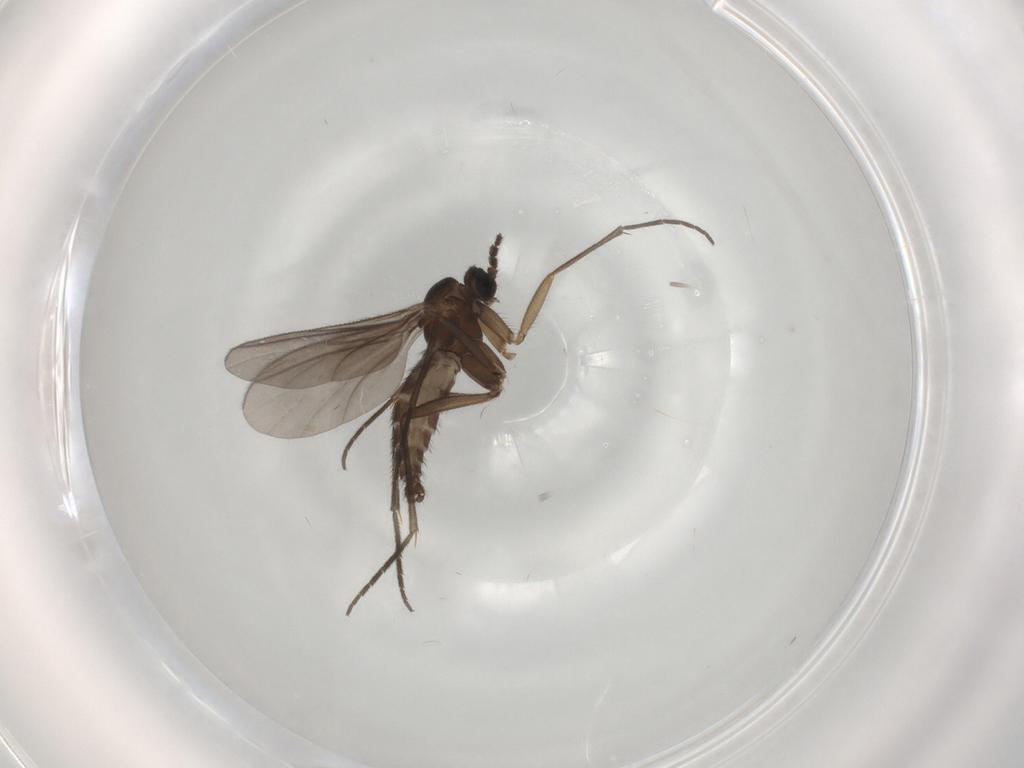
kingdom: Animalia
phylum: Arthropoda
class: Insecta
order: Diptera
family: Sciaridae
